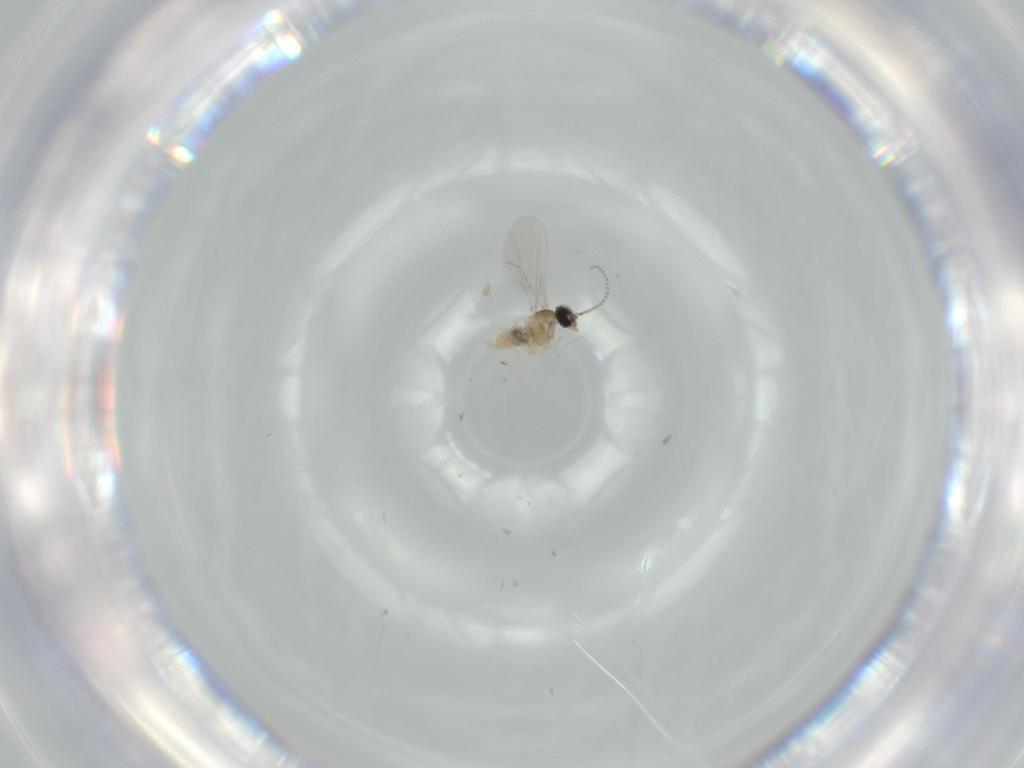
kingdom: Animalia
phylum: Arthropoda
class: Insecta
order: Diptera
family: Cecidomyiidae
